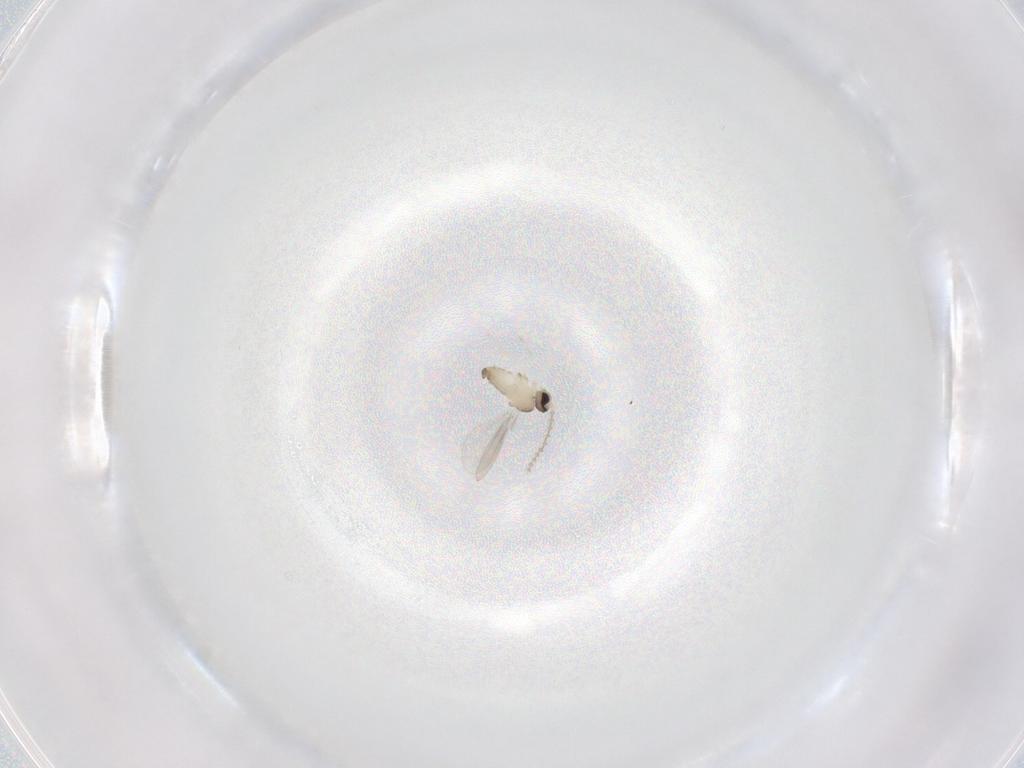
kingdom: Animalia
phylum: Arthropoda
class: Insecta
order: Diptera
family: Cecidomyiidae
